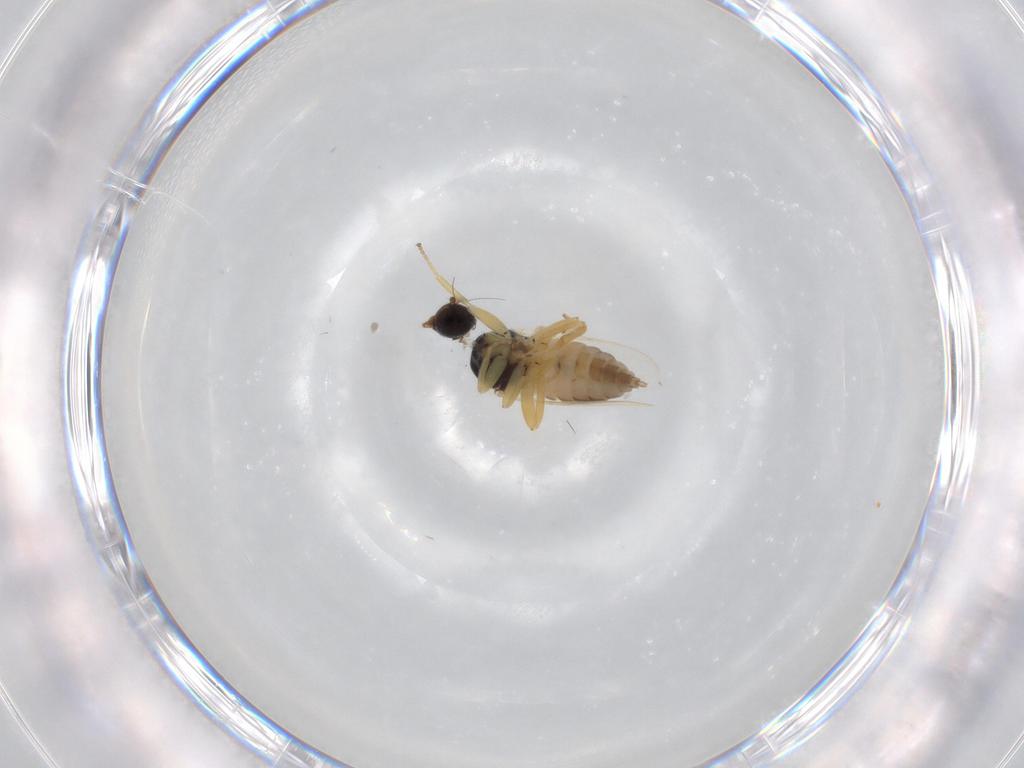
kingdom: Animalia
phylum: Arthropoda
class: Insecta
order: Diptera
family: Hybotidae
